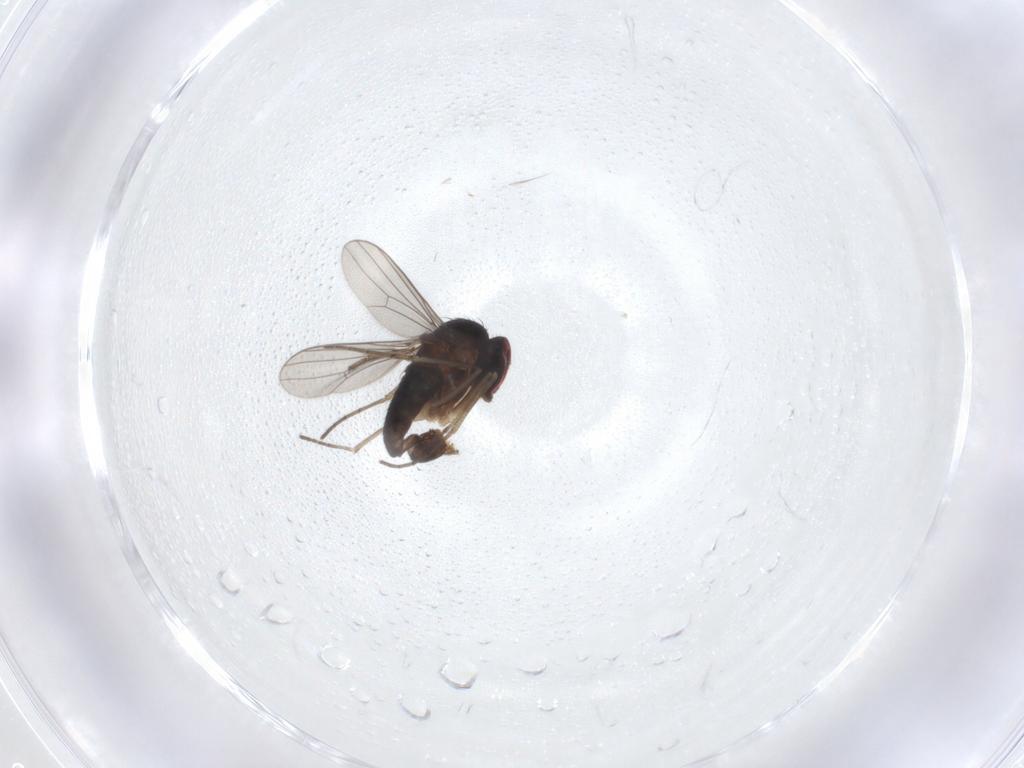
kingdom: Animalia
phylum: Arthropoda
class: Insecta
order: Diptera
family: Dolichopodidae
